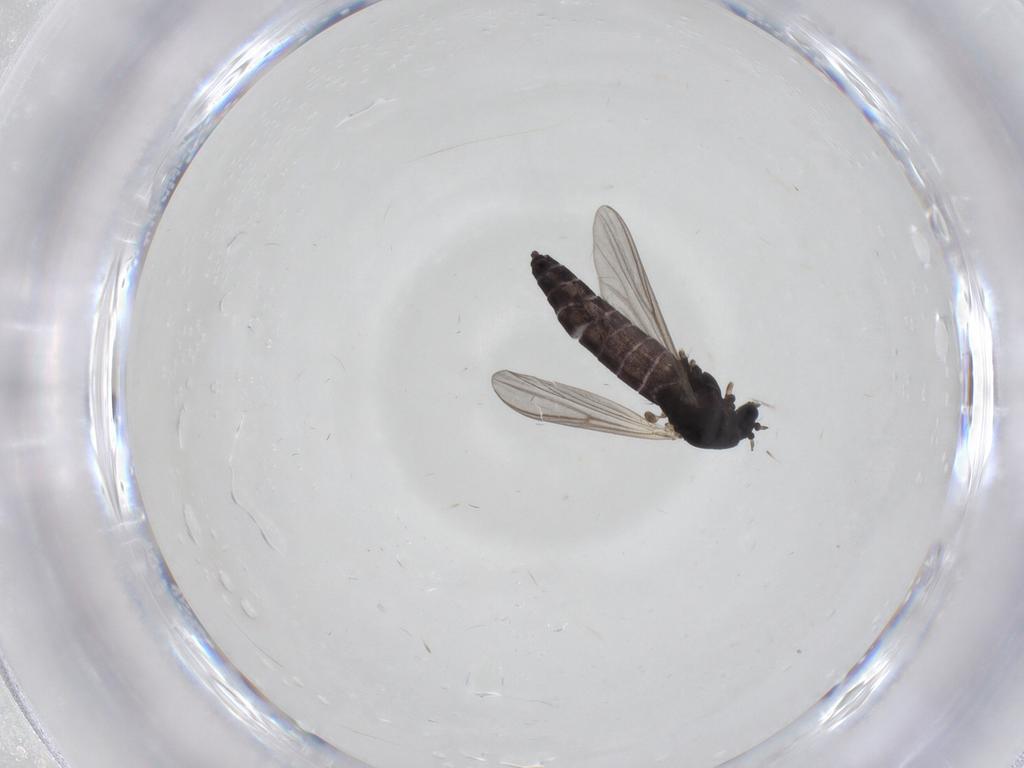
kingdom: Animalia
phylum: Arthropoda
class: Insecta
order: Diptera
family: Chironomidae
